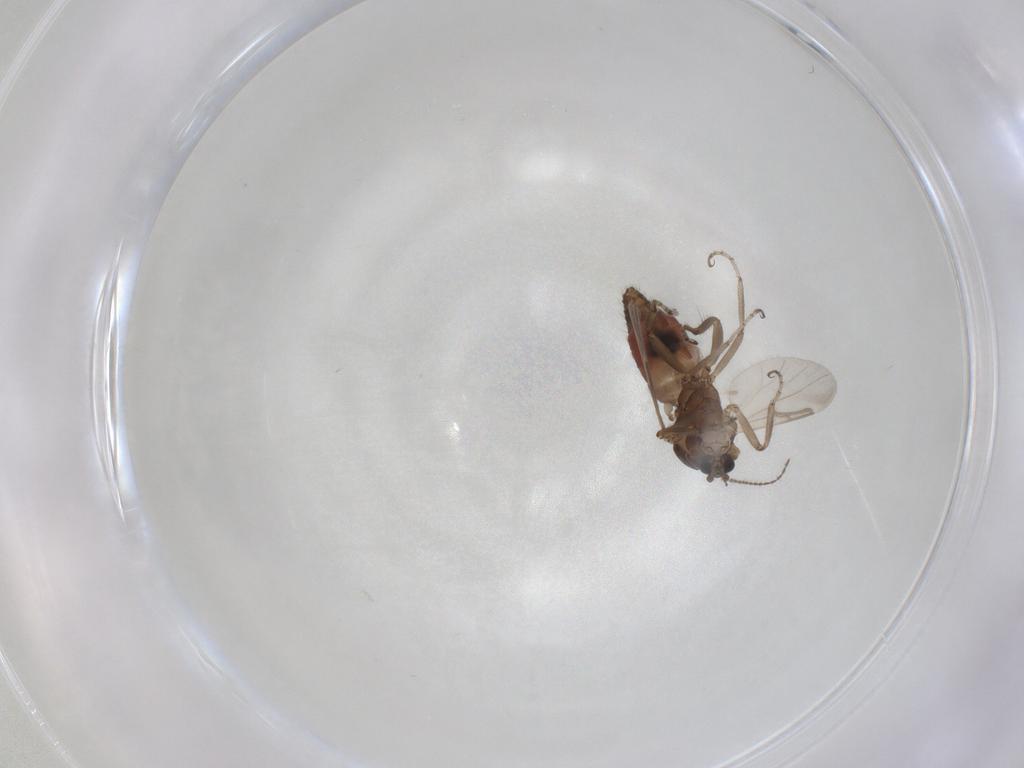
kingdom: Animalia
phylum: Arthropoda
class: Insecta
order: Diptera
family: Ceratopogonidae
